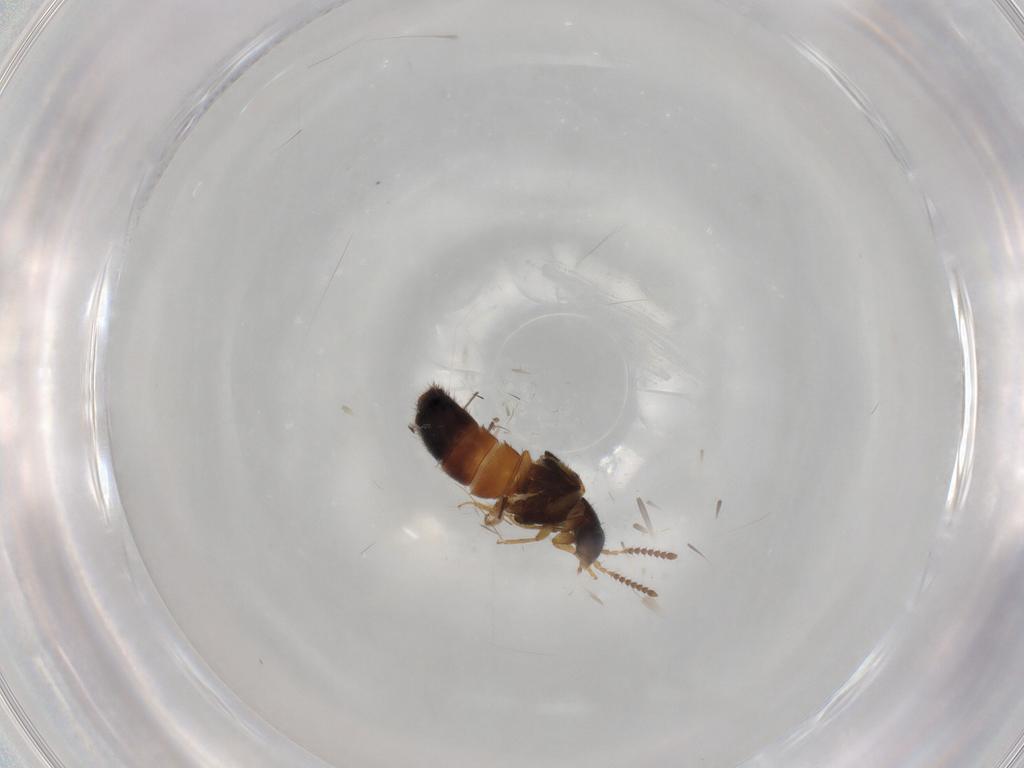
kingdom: Animalia
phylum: Arthropoda
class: Insecta
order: Coleoptera
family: Staphylinidae
